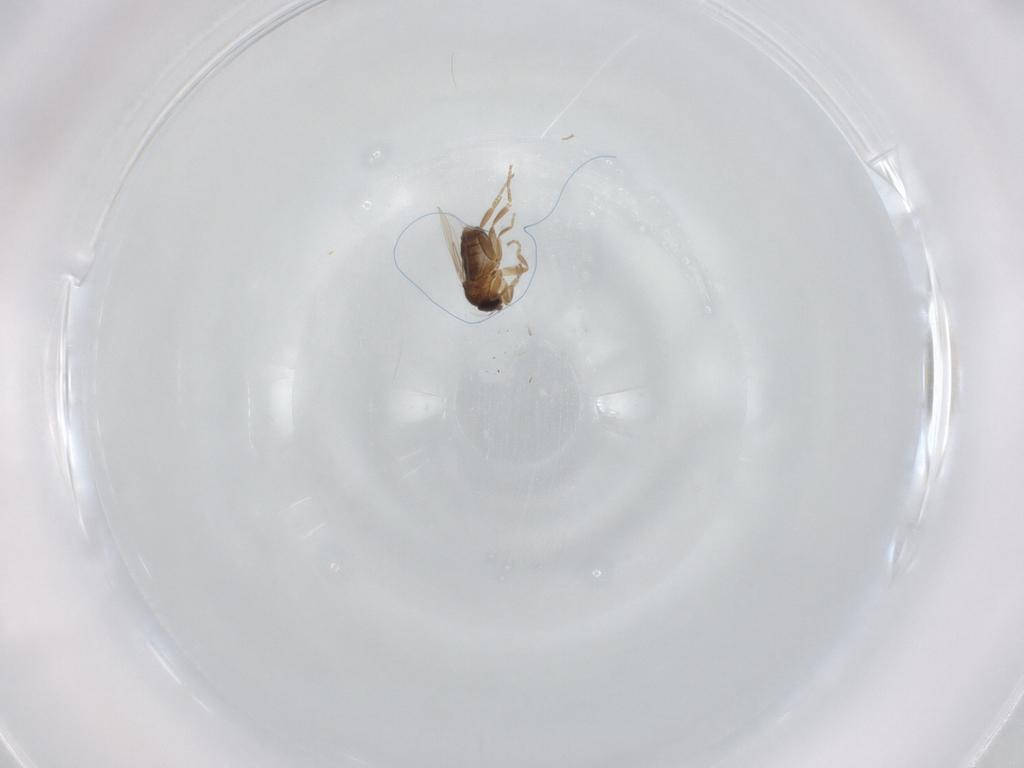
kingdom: Animalia
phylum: Arthropoda
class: Insecta
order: Diptera
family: Phoridae
